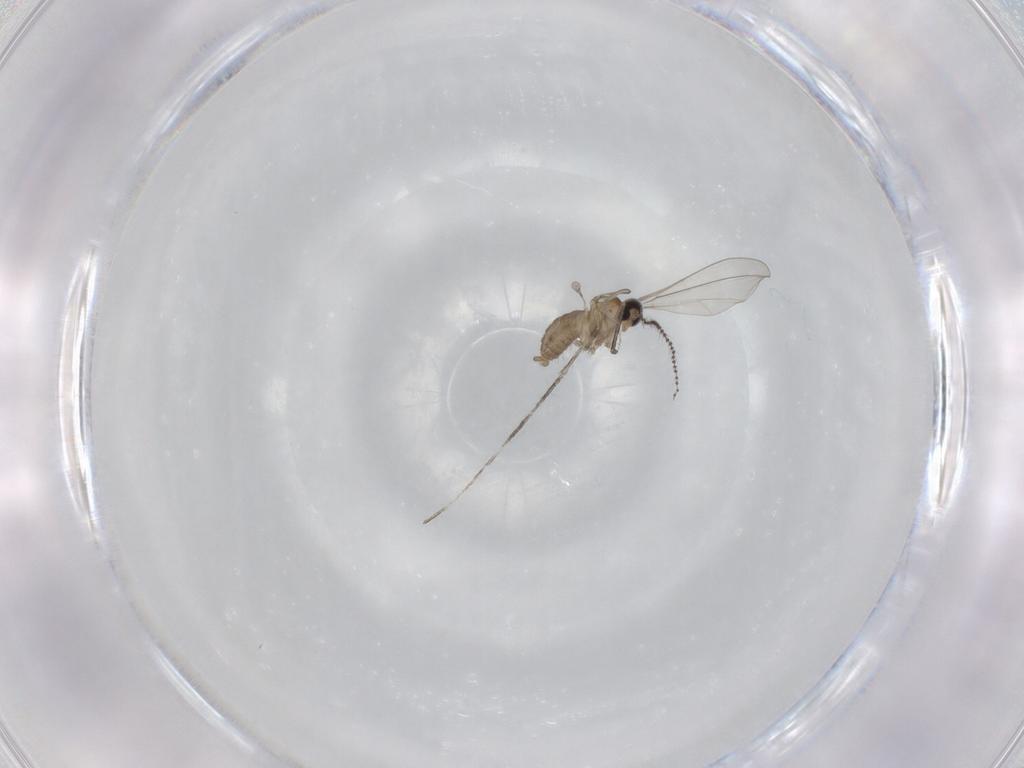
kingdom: Animalia
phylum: Arthropoda
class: Insecta
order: Diptera
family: Cecidomyiidae
